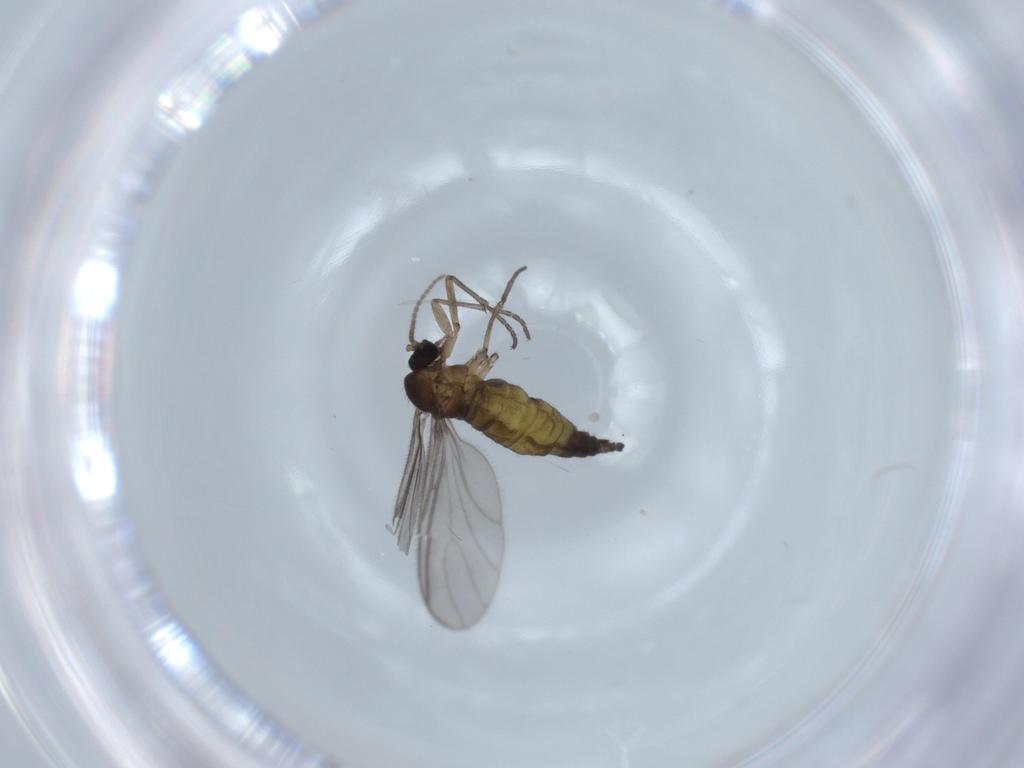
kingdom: Animalia
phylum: Arthropoda
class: Insecta
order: Diptera
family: Sciaridae
